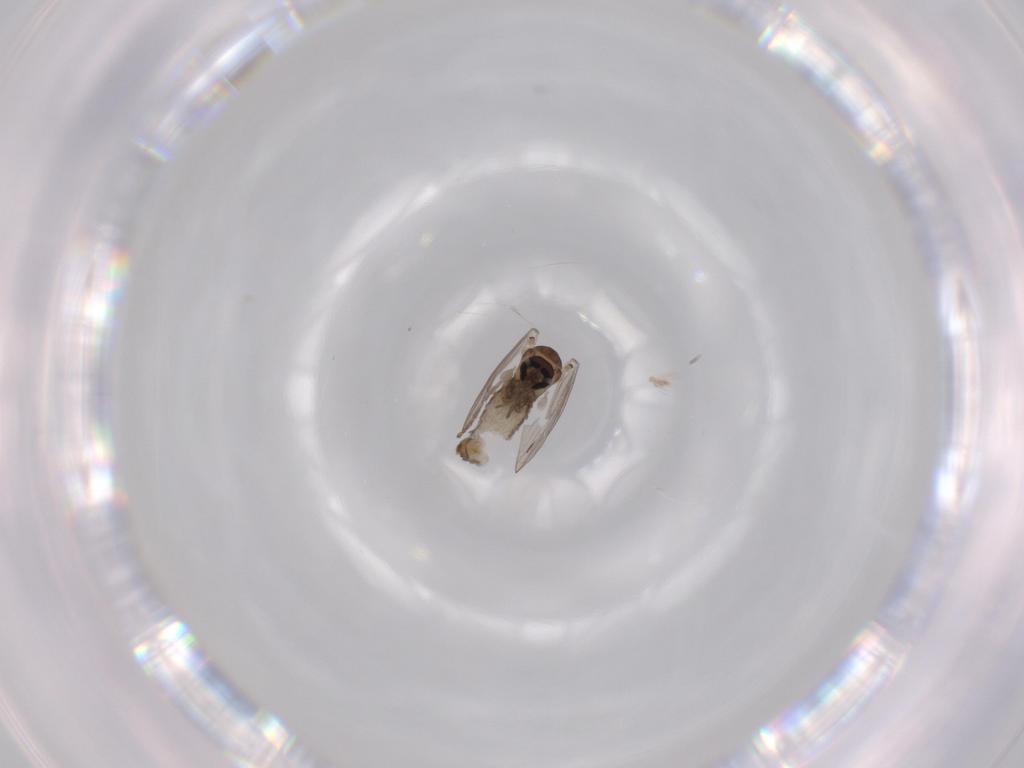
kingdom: Animalia
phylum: Arthropoda
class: Insecta
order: Diptera
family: Psychodidae
